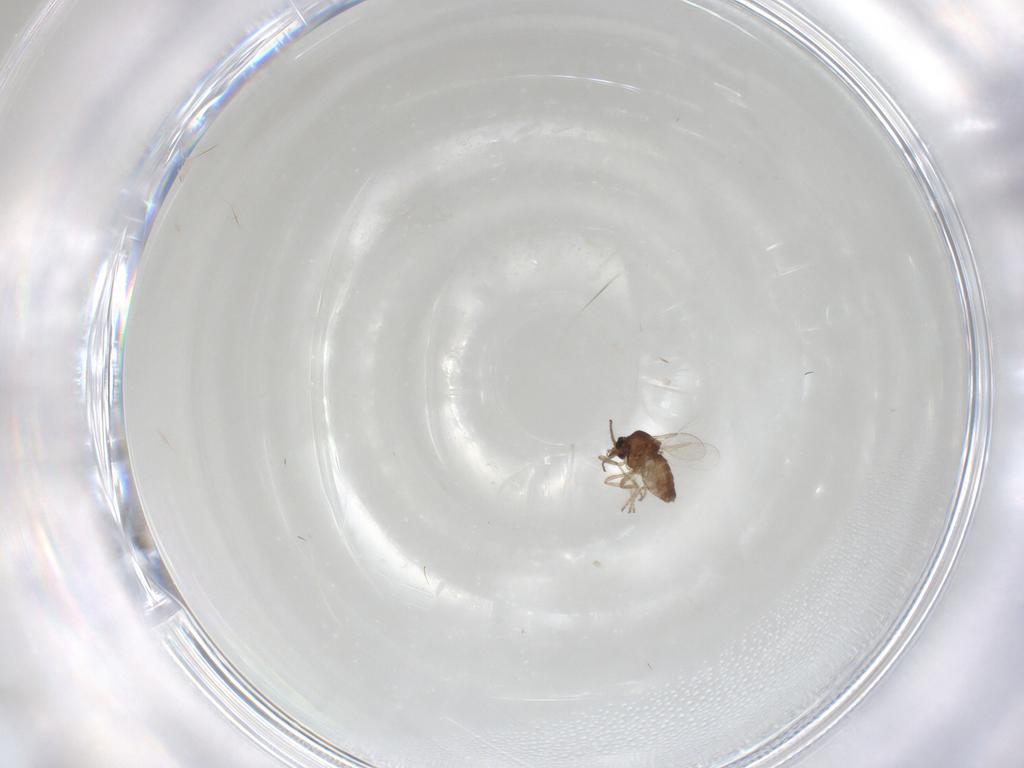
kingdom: Animalia
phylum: Arthropoda
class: Insecta
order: Diptera
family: Ceratopogonidae
